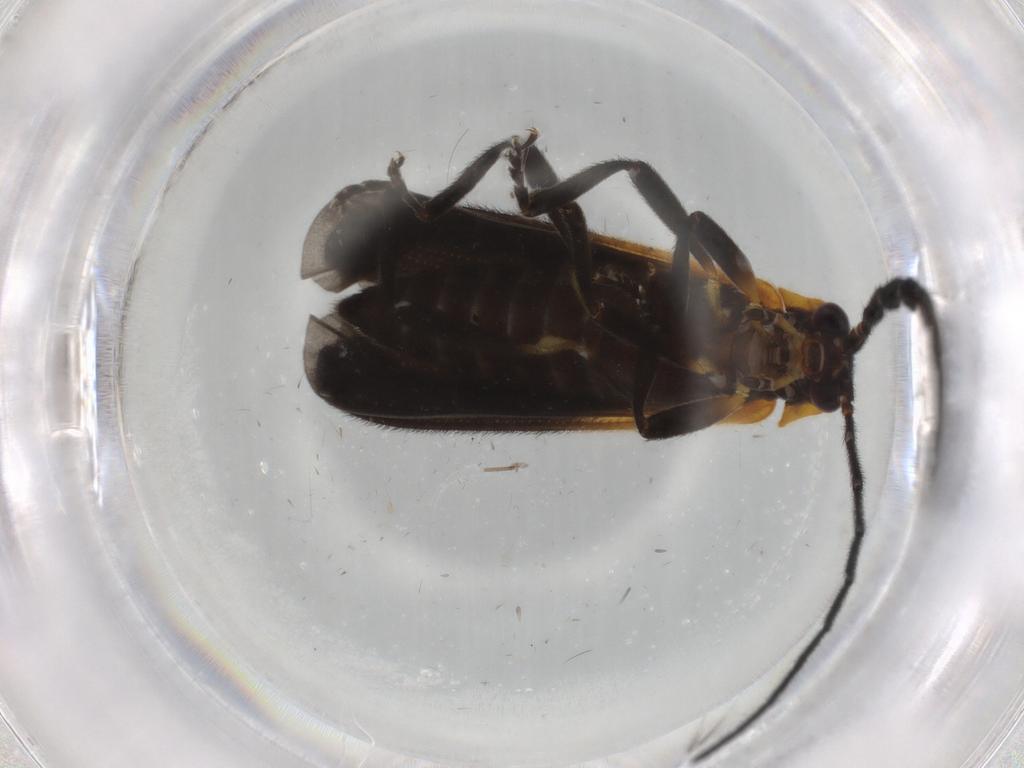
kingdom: Animalia
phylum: Arthropoda
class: Insecta
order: Coleoptera
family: Lycidae
